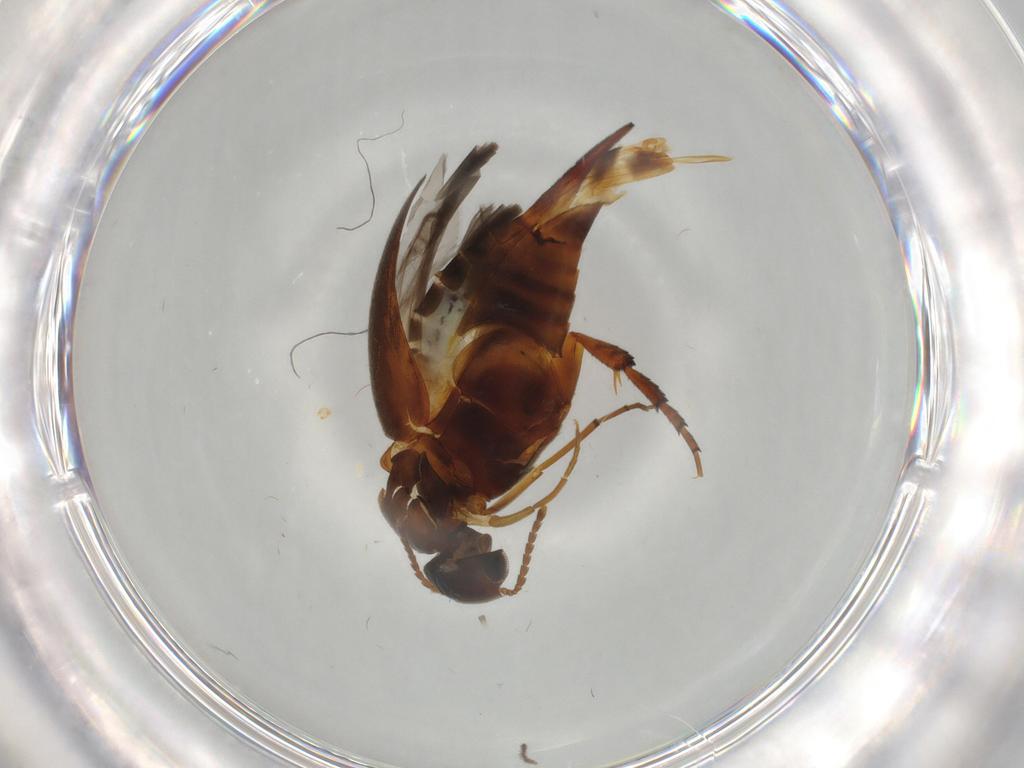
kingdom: Animalia
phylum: Arthropoda
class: Insecta
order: Coleoptera
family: Mordellidae
